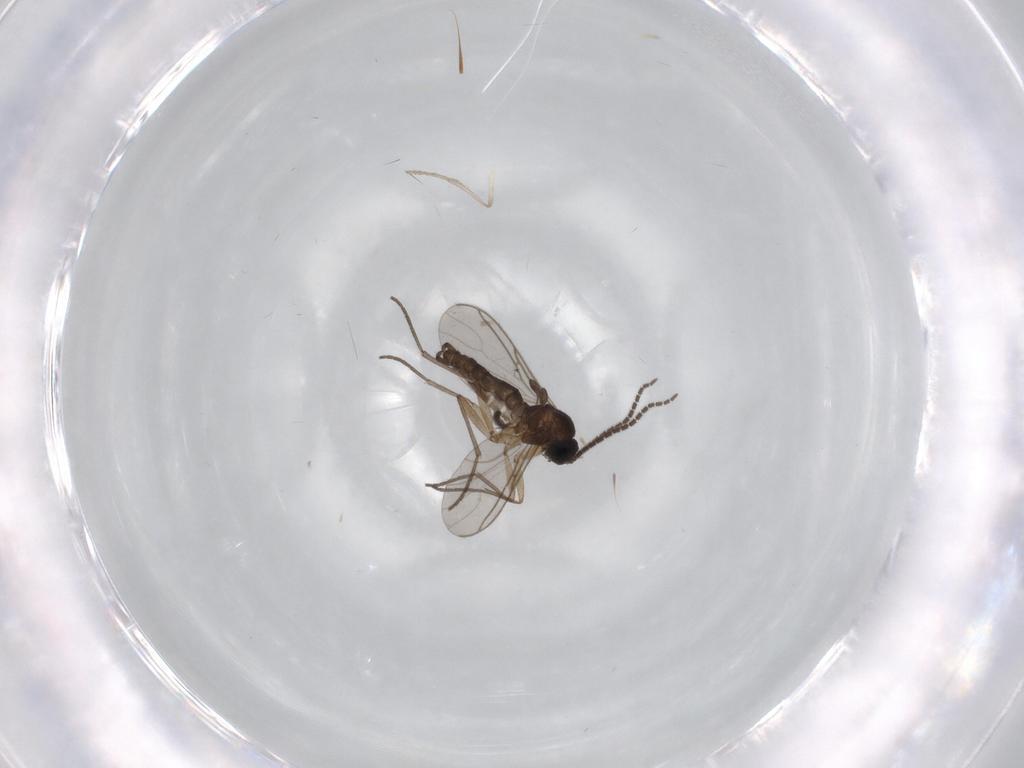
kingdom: Animalia
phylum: Arthropoda
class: Insecta
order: Diptera
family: Sciaridae
